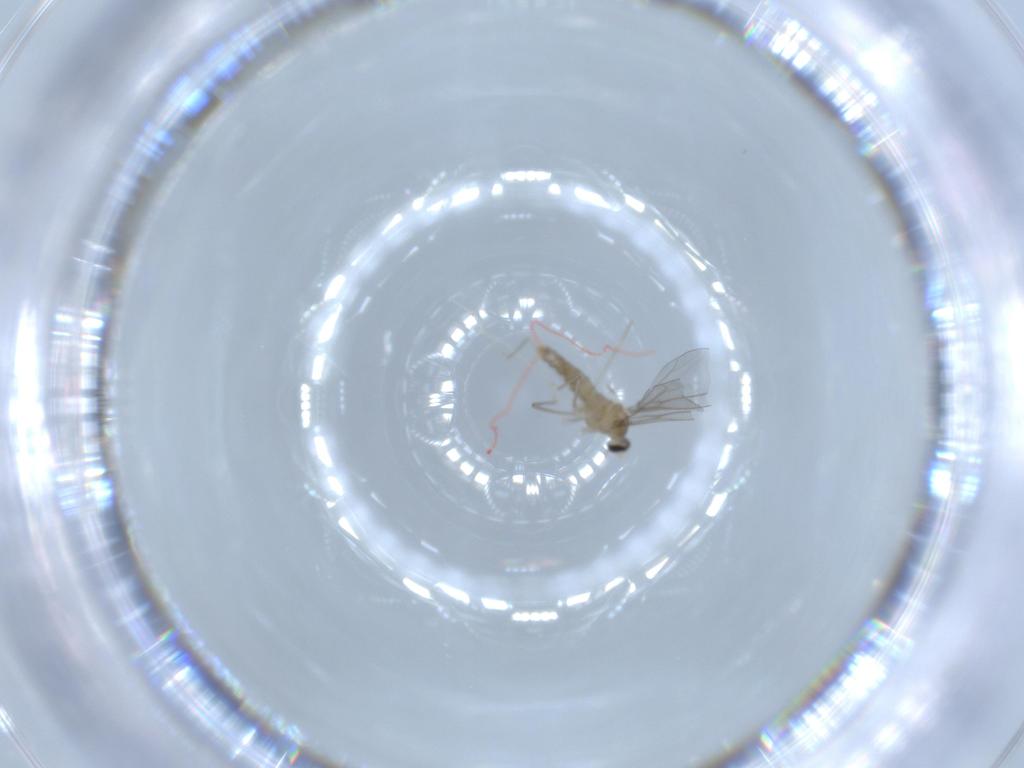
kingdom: Animalia
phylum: Arthropoda
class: Insecta
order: Diptera
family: Cecidomyiidae
